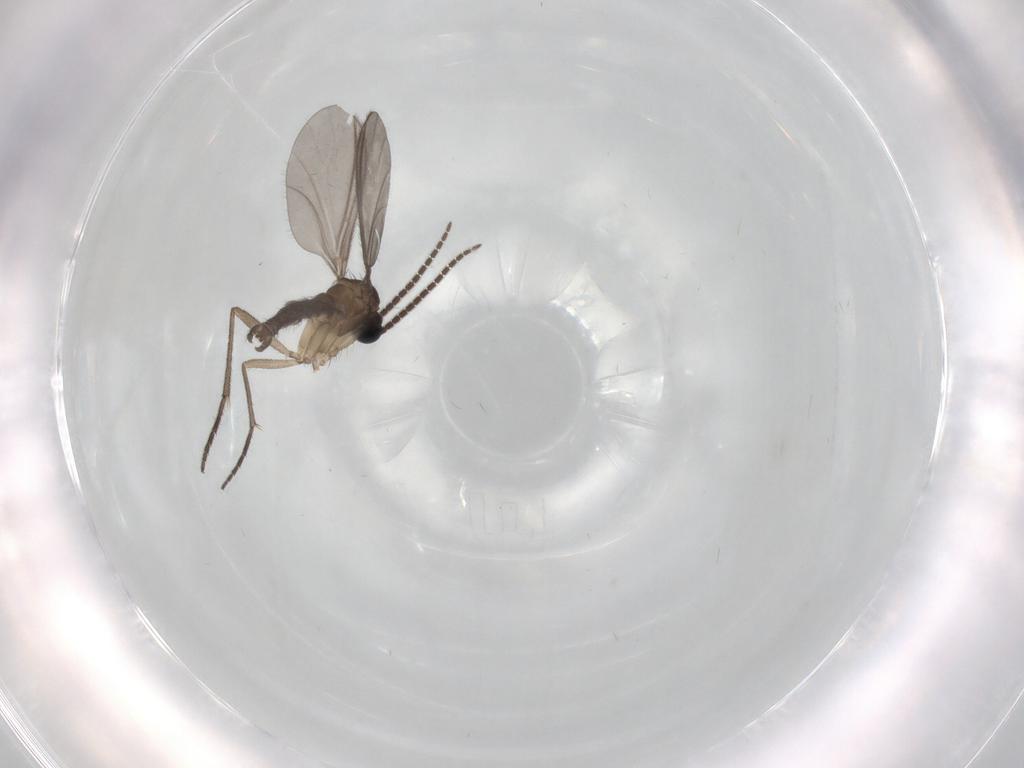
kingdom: Animalia
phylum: Arthropoda
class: Insecta
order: Diptera
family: Sciaridae
